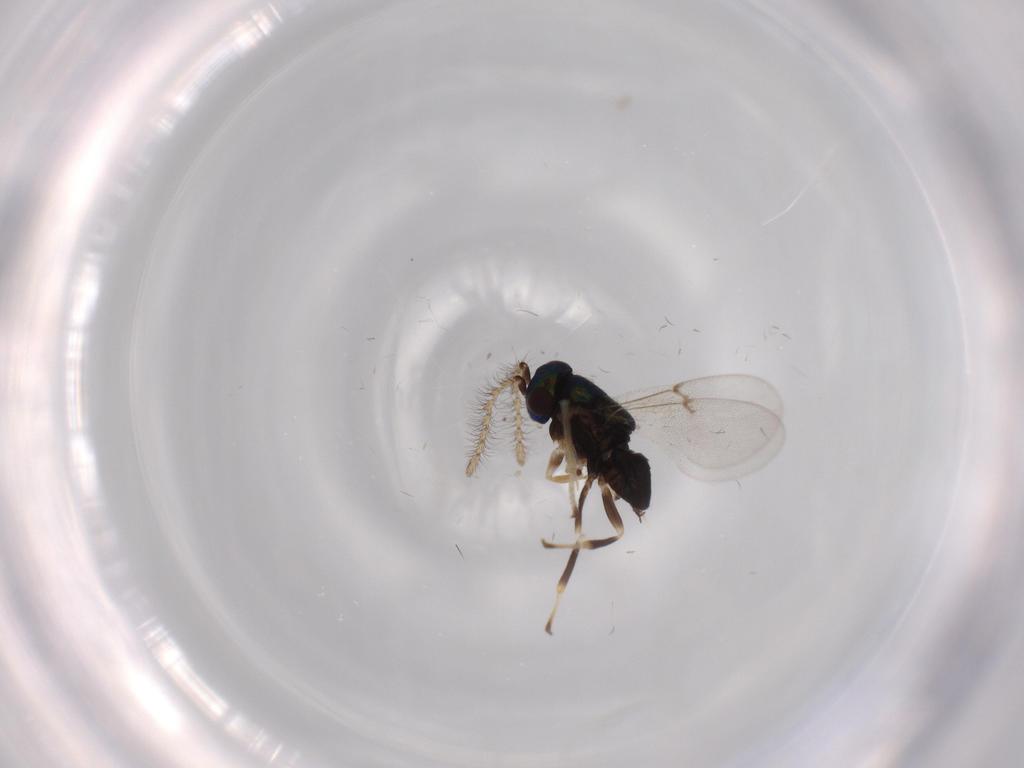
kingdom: Animalia
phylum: Arthropoda
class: Insecta
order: Hymenoptera
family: Encyrtidae
